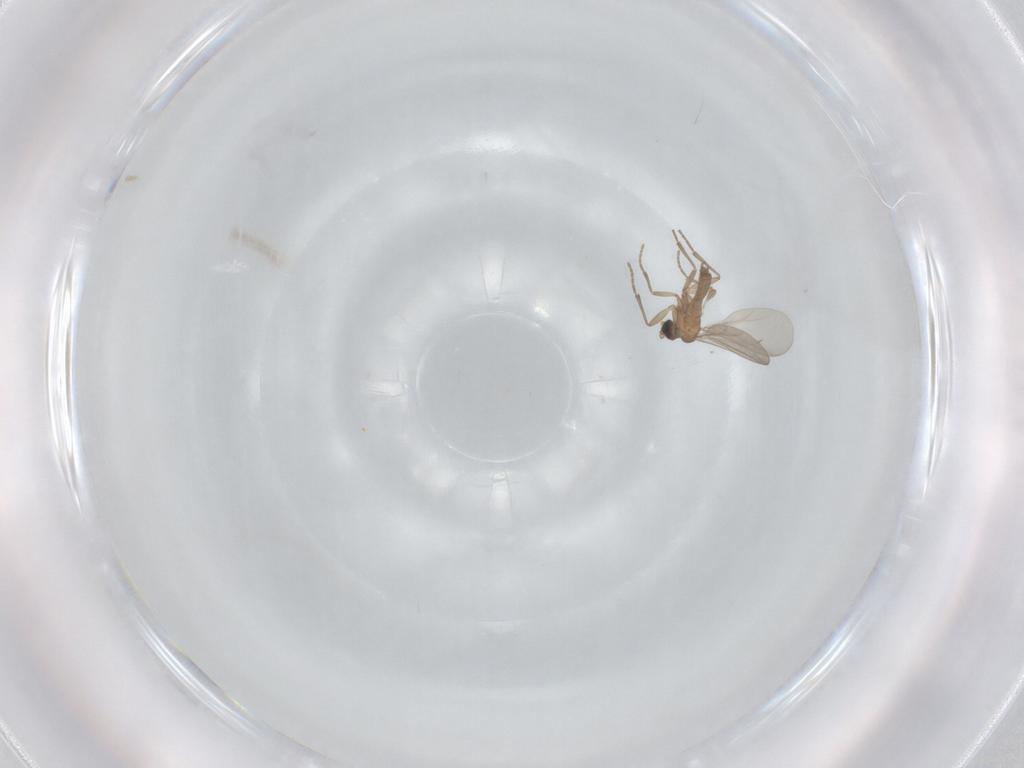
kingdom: Animalia
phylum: Arthropoda
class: Insecta
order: Diptera
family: Sciaridae
